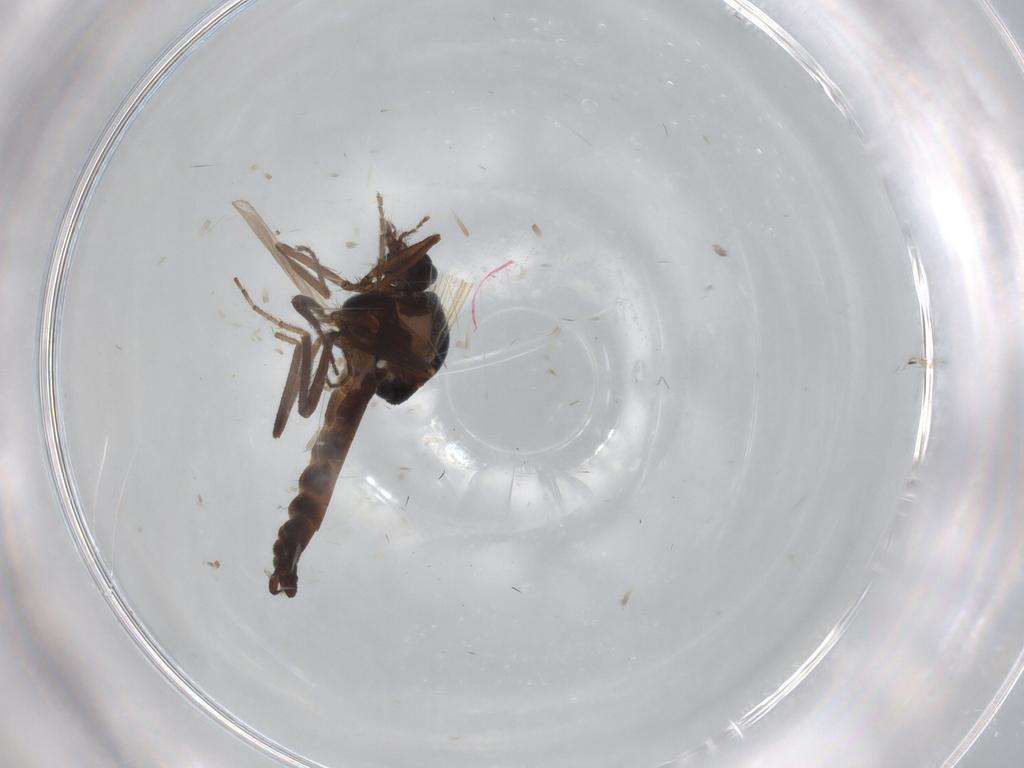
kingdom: Animalia
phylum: Arthropoda
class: Insecta
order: Diptera
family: Ceratopogonidae
